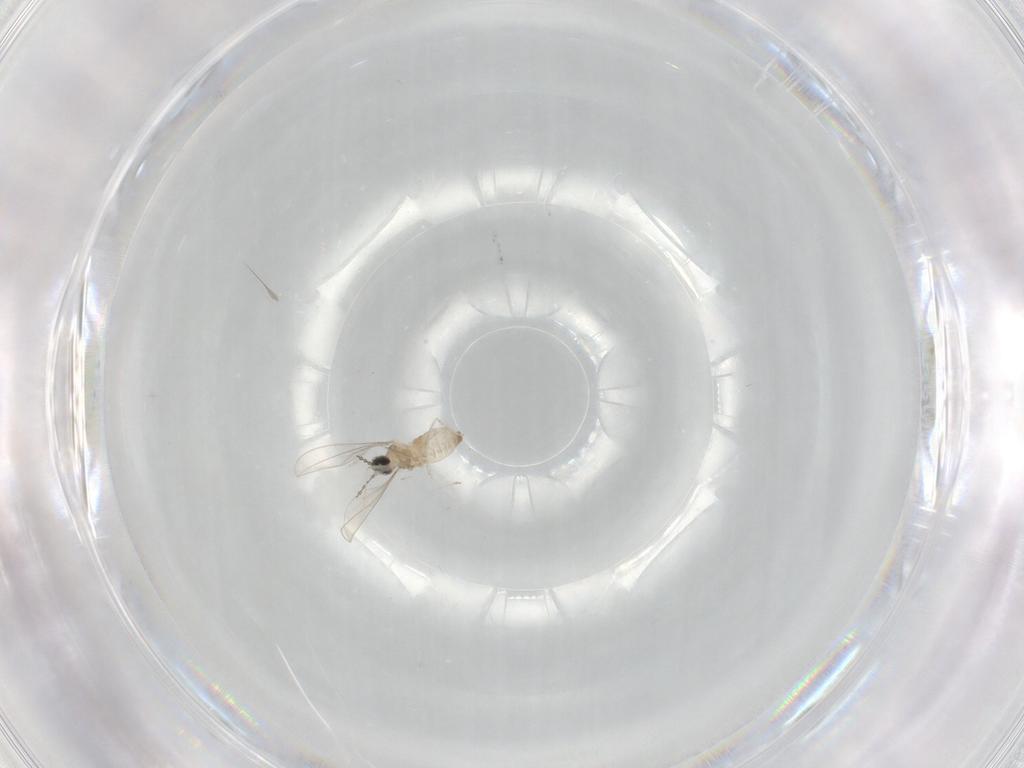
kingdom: Animalia
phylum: Arthropoda
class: Insecta
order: Diptera
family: Cecidomyiidae
